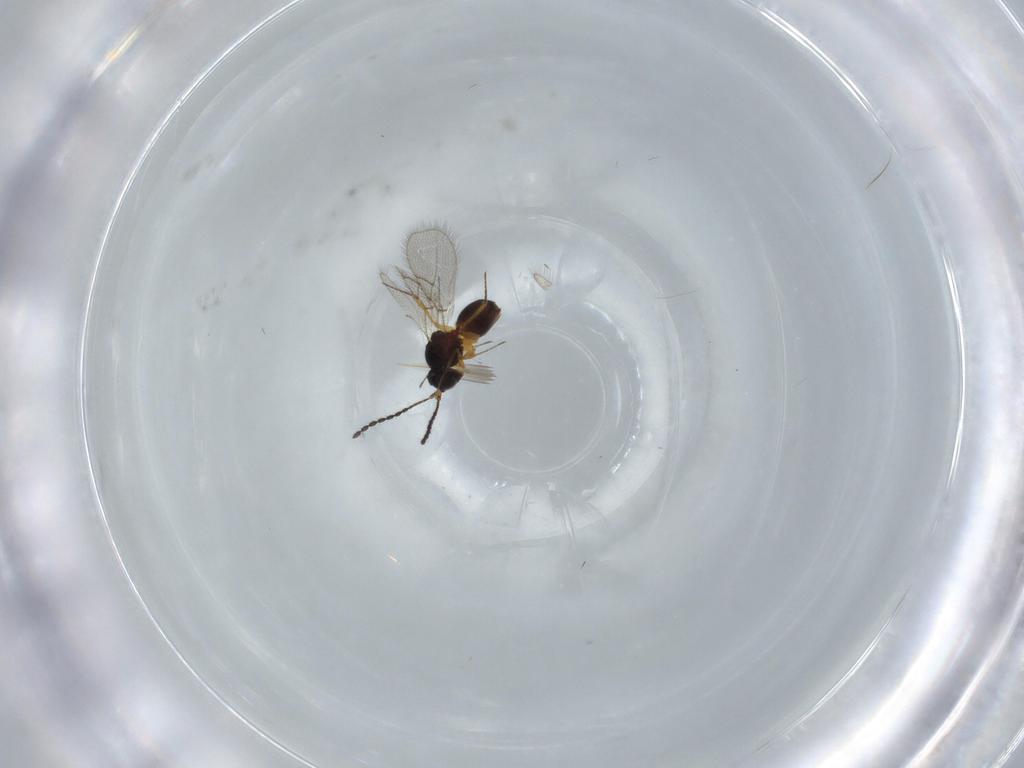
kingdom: Animalia
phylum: Arthropoda
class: Insecta
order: Hymenoptera
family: Figitidae
